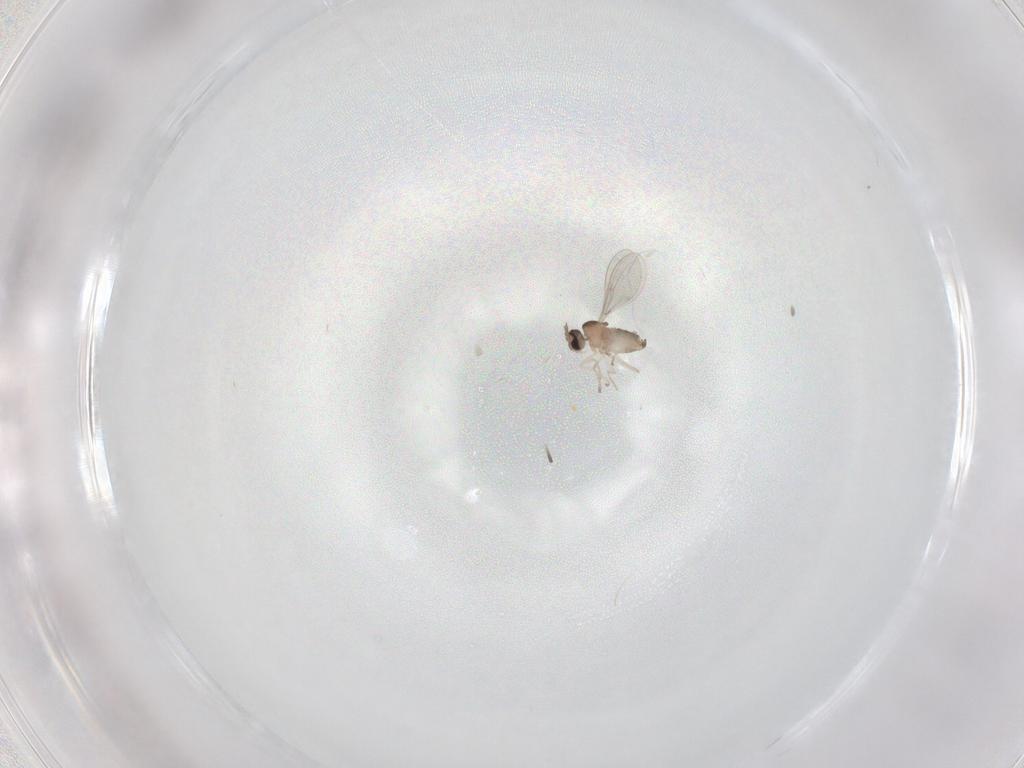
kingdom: Animalia
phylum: Arthropoda
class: Insecta
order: Diptera
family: Cecidomyiidae
